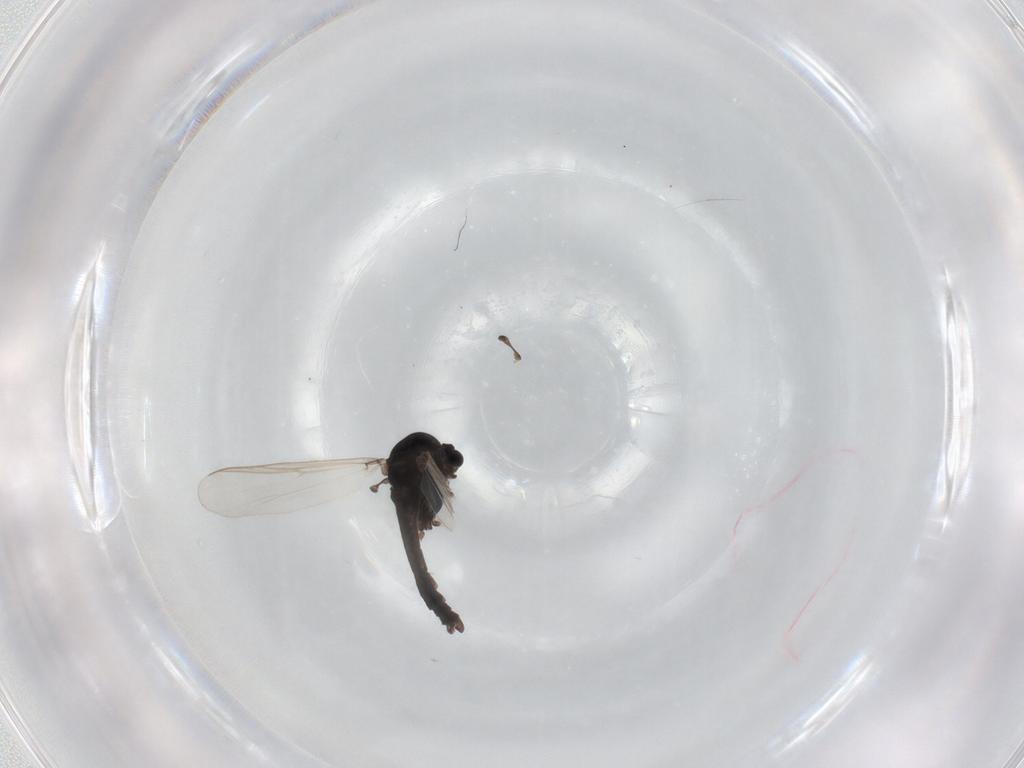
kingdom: Animalia
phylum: Arthropoda
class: Insecta
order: Diptera
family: Chironomidae
